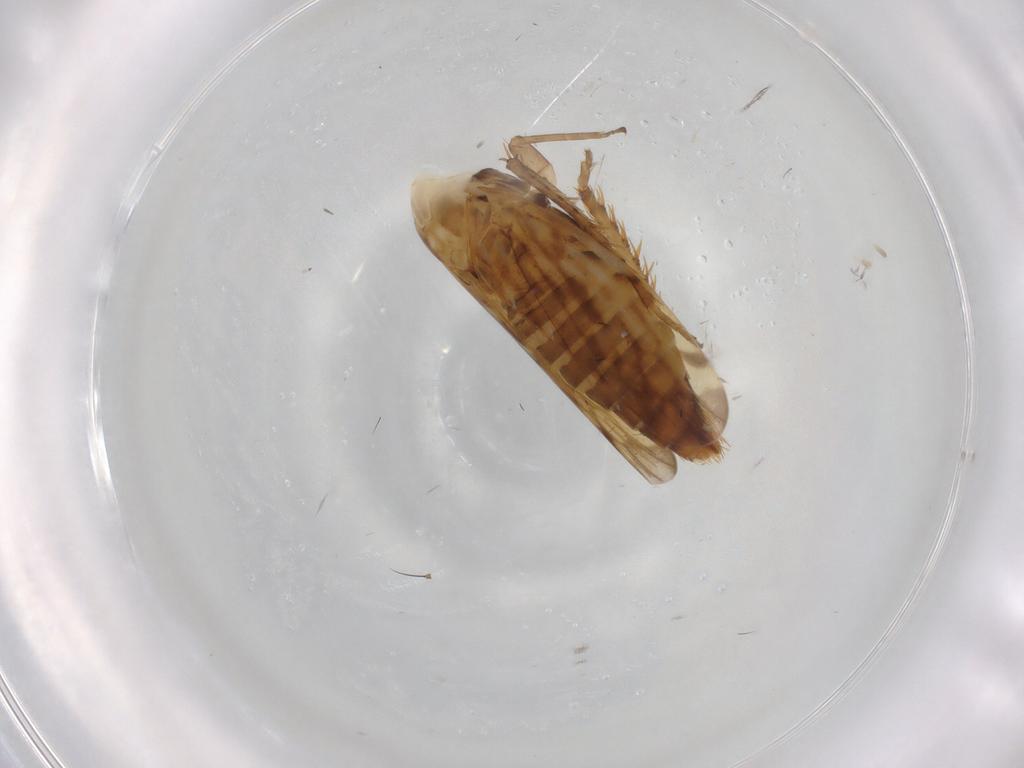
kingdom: Animalia
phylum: Arthropoda
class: Insecta
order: Hemiptera
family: Cicadellidae
